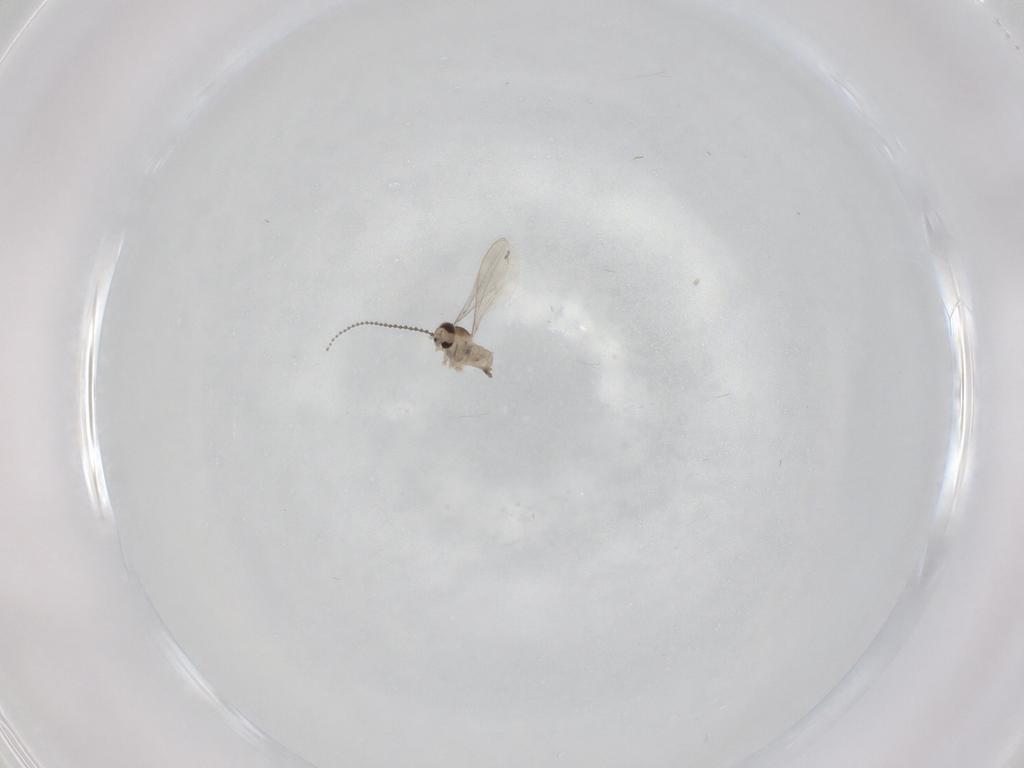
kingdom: Animalia
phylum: Arthropoda
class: Insecta
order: Diptera
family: Cecidomyiidae
